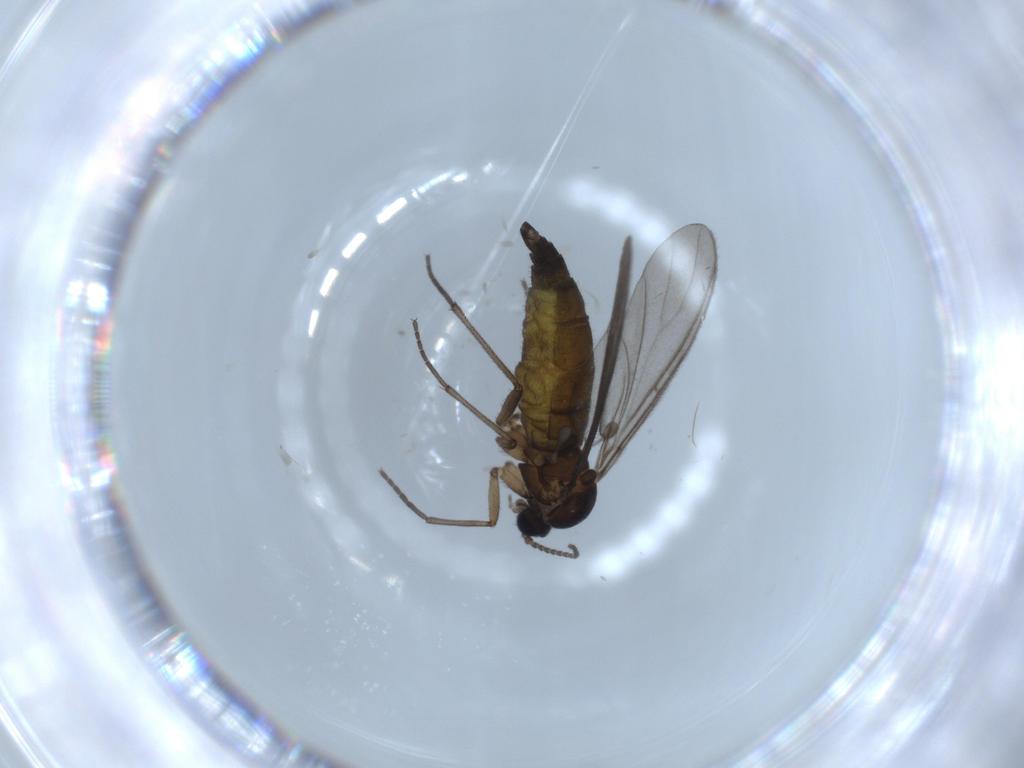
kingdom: Animalia
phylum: Arthropoda
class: Insecta
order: Diptera
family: Sciaridae
